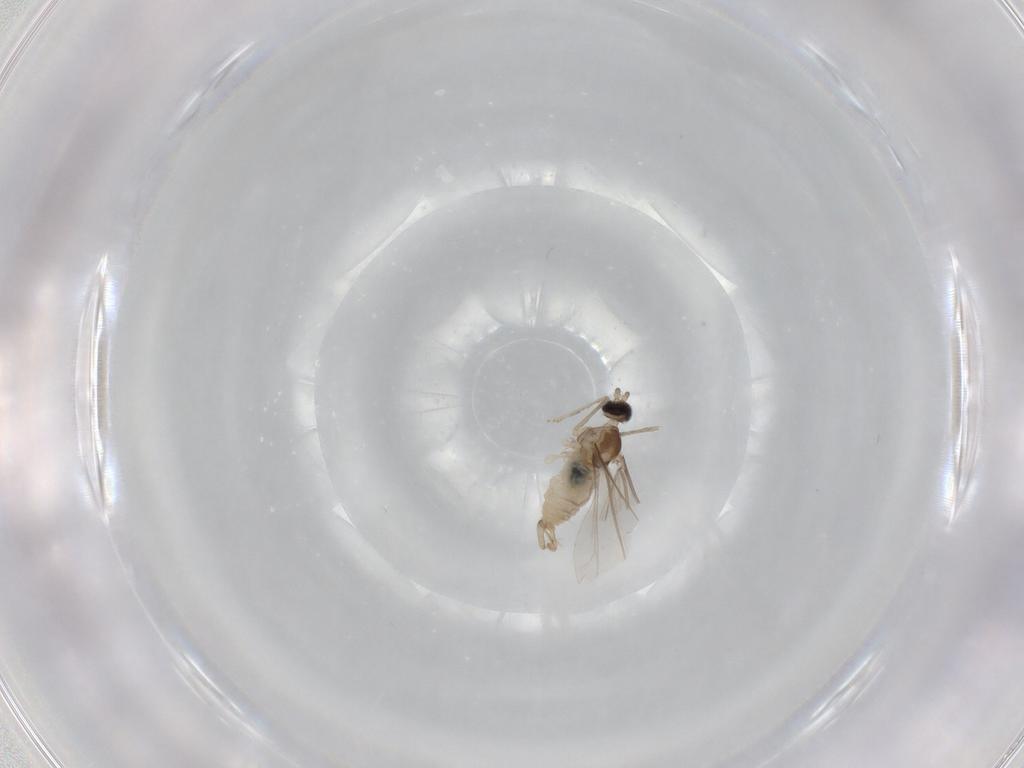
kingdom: Animalia
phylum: Arthropoda
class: Insecta
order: Diptera
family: Cecidomyiidae
